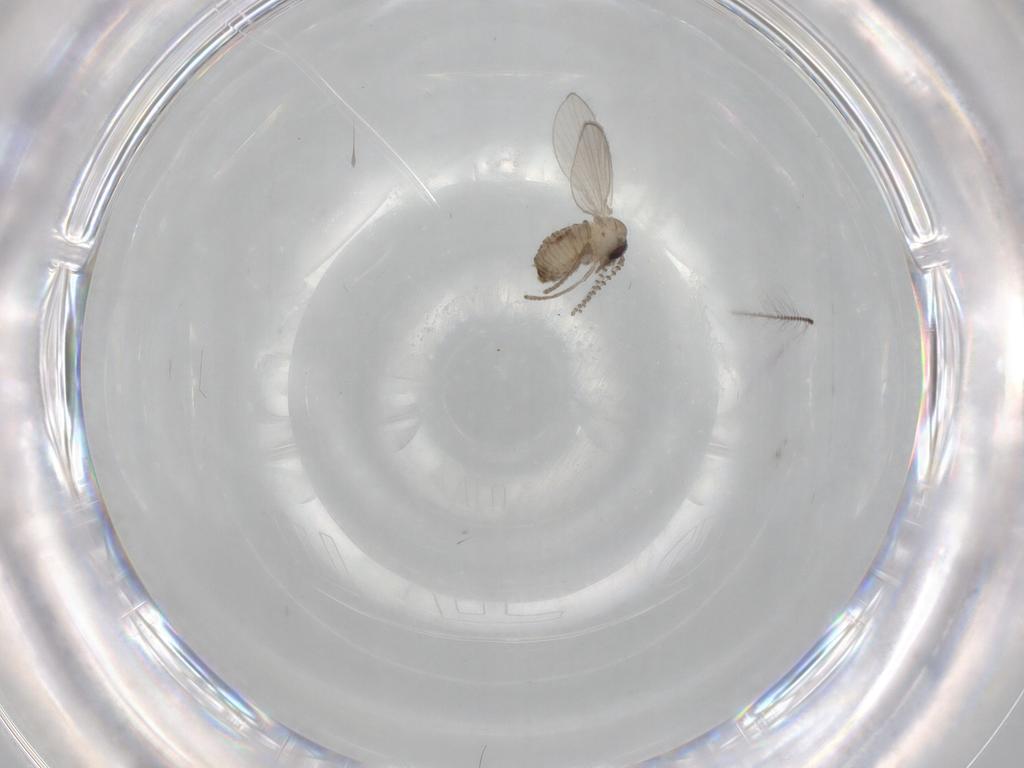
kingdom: Animalia
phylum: Arthropoda
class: Insecta
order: Diptera
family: Psychodidae
